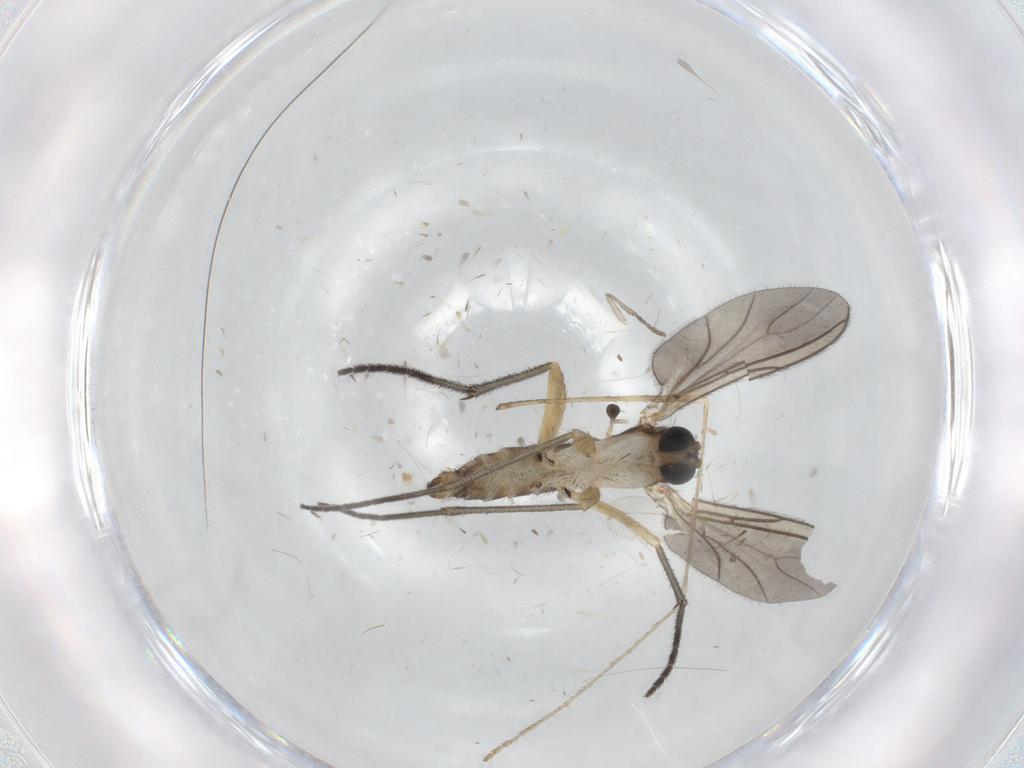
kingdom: Animalia
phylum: Arthropoda
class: Insecta
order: Diptera
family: Sciaridae
